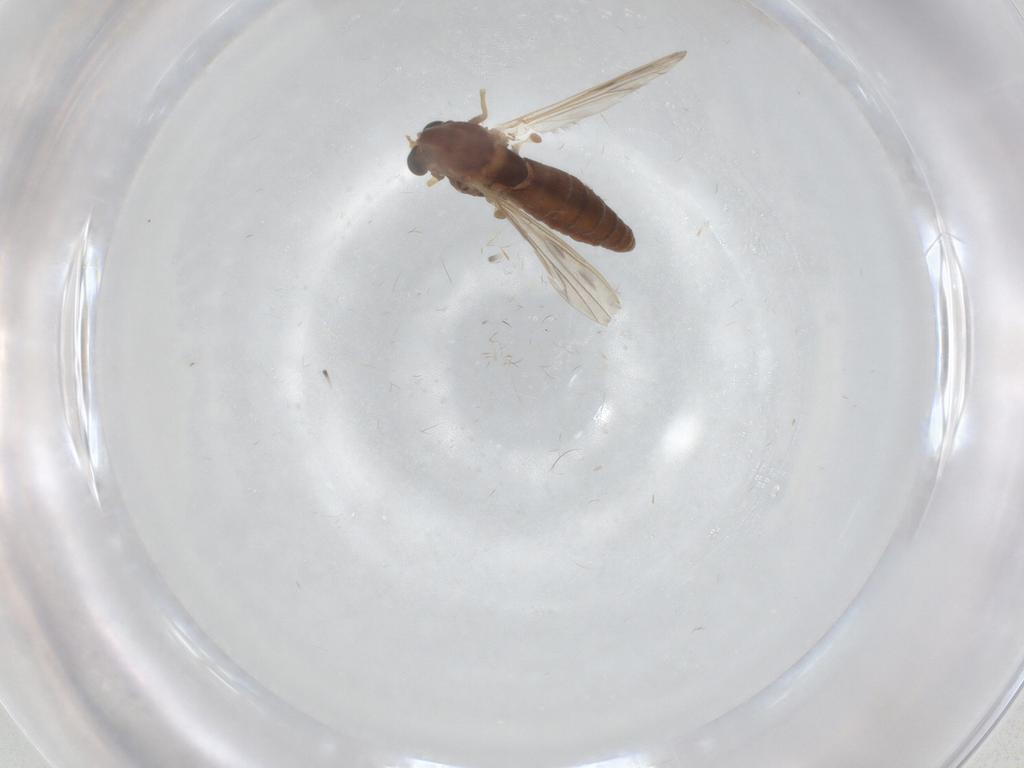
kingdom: Animalia
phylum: Arthropoda
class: Insecta
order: Diptera
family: Chironomidae
